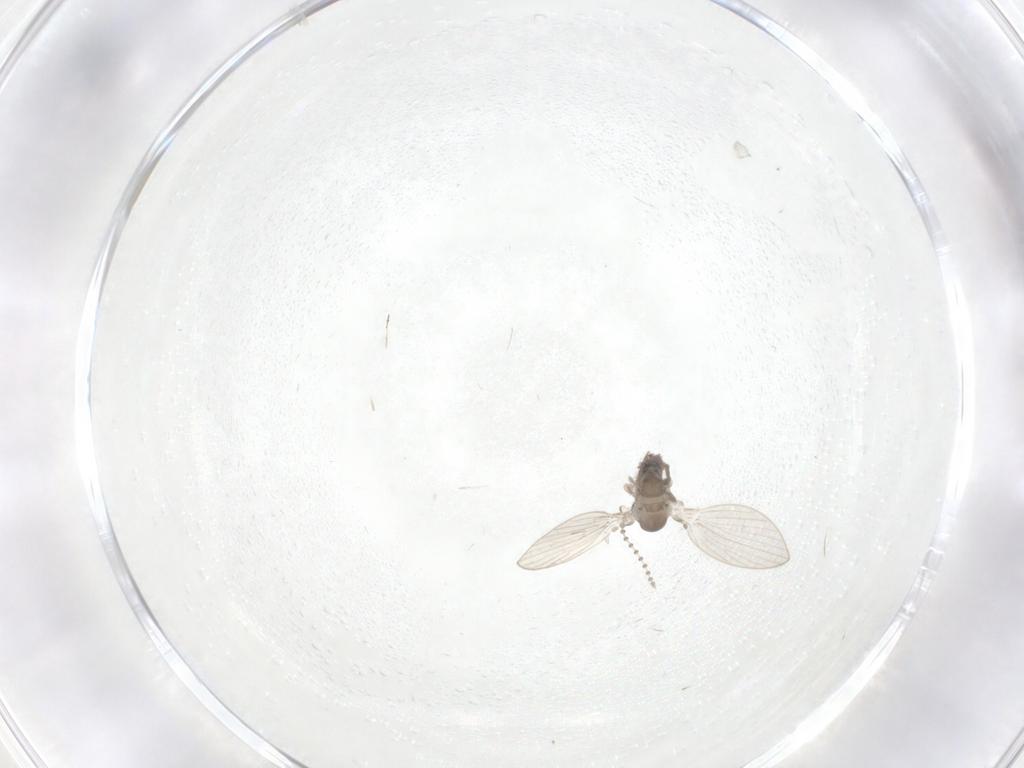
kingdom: Animalia
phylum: Arthropoda
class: Insecta
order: Diptera
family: Psychodidae
